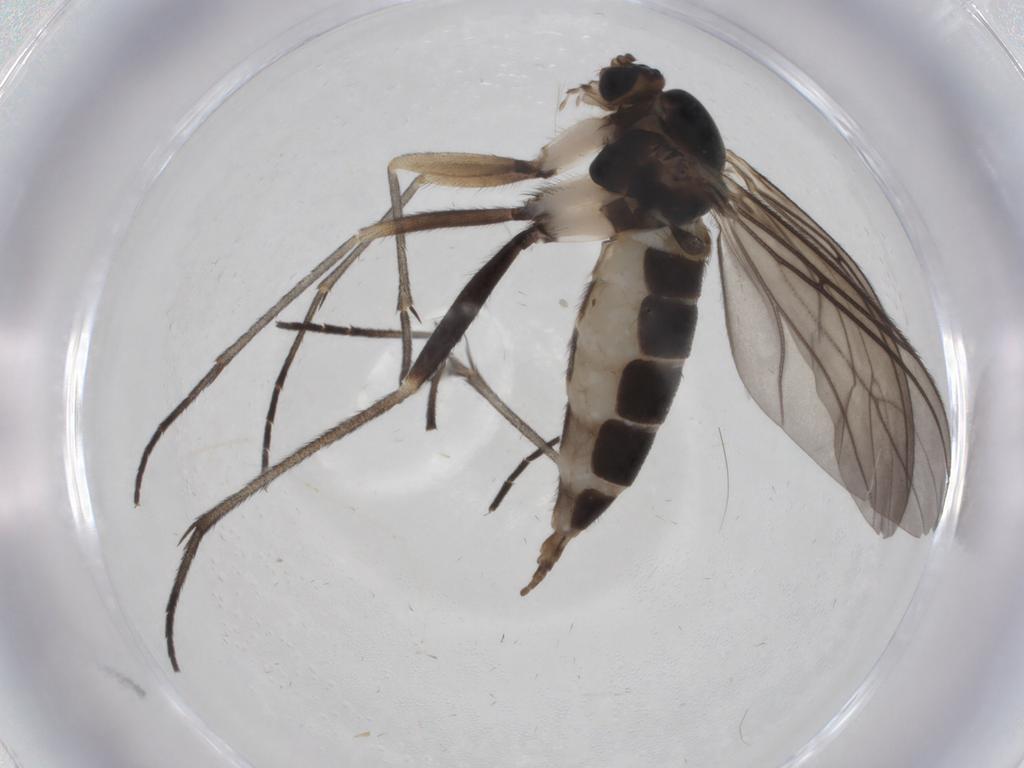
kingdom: Animalia
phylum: Arthropoda
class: Insecta
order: Diptera
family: Sciaridae
